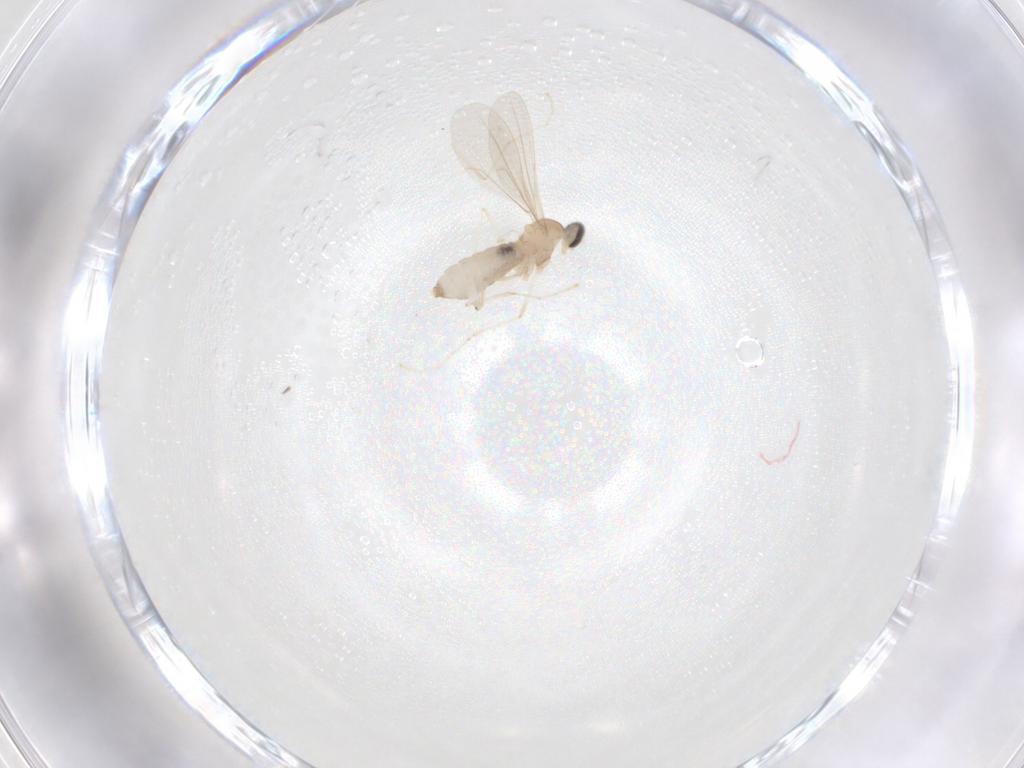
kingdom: Animalia
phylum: Arthropoda
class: Insecta
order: Diptera
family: Cecidomyiidae
